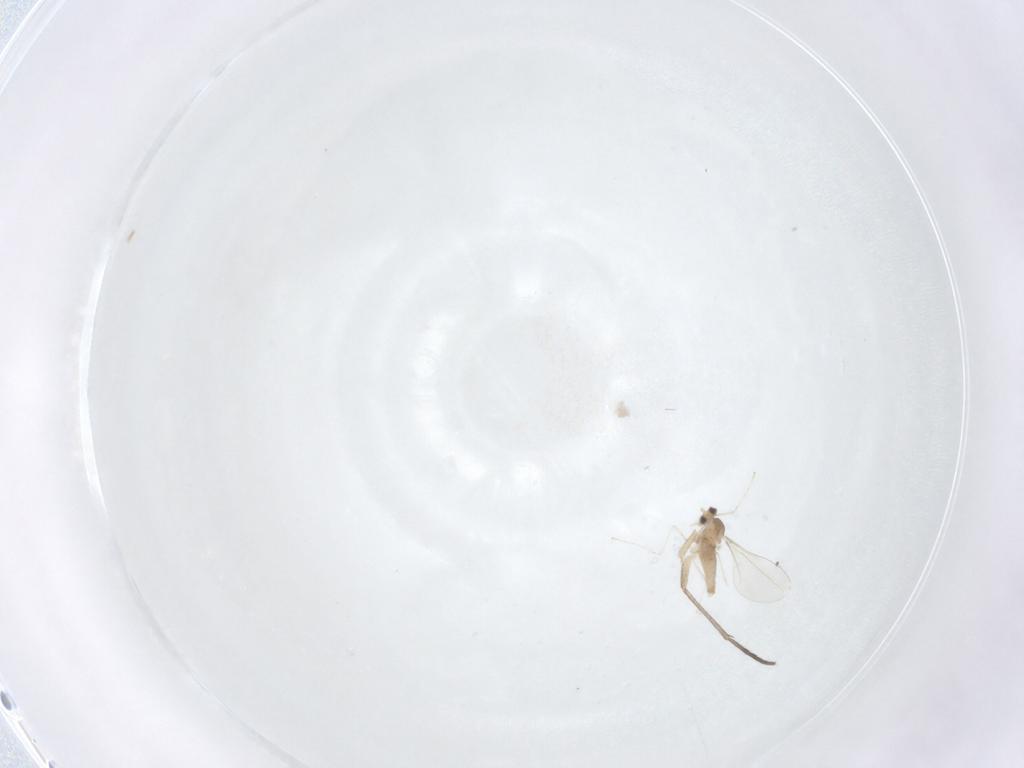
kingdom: Animalia
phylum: Arthropoda
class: Insecta
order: Diptera
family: Cecidomyiidae
